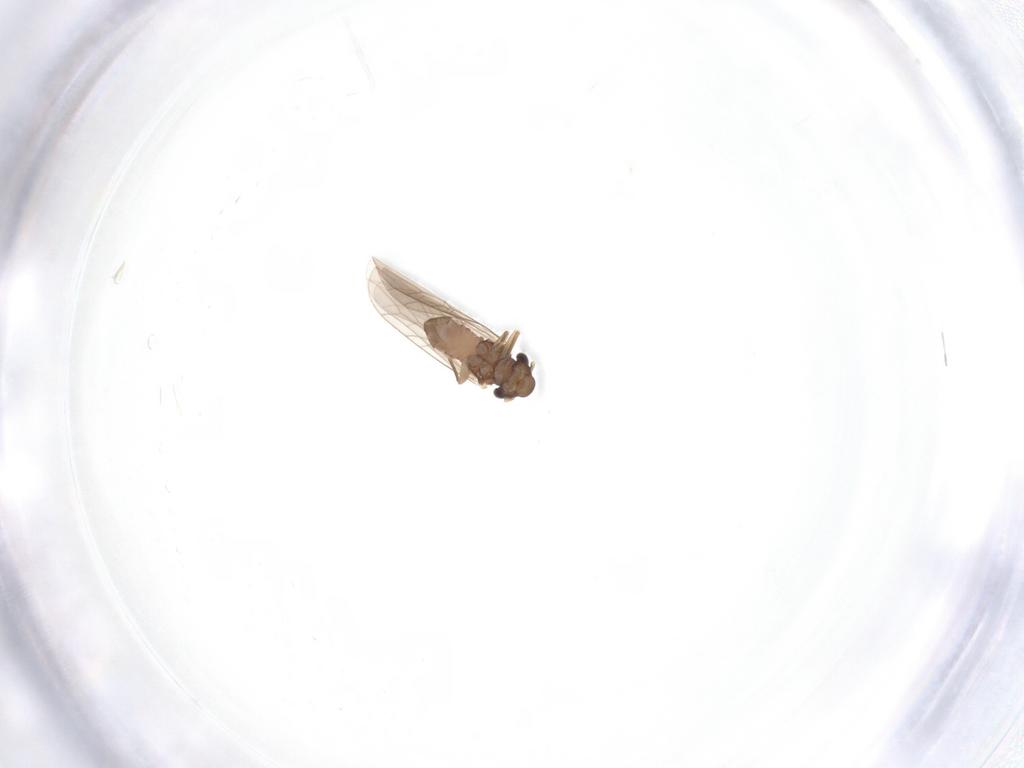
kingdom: Animalia
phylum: Arthropoda
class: Insecta
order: Psocodea
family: Lepidopsocidae
